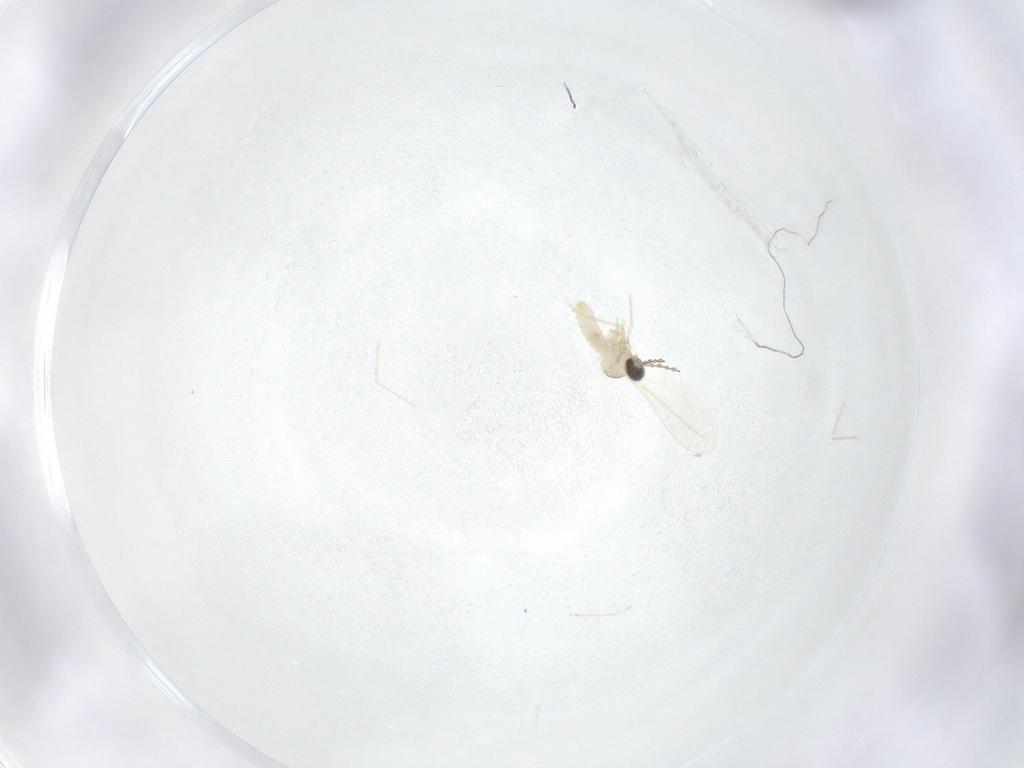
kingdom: Animalia
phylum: Arthropoda
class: Insecta
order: Diptera
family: Cecidomyiidae
